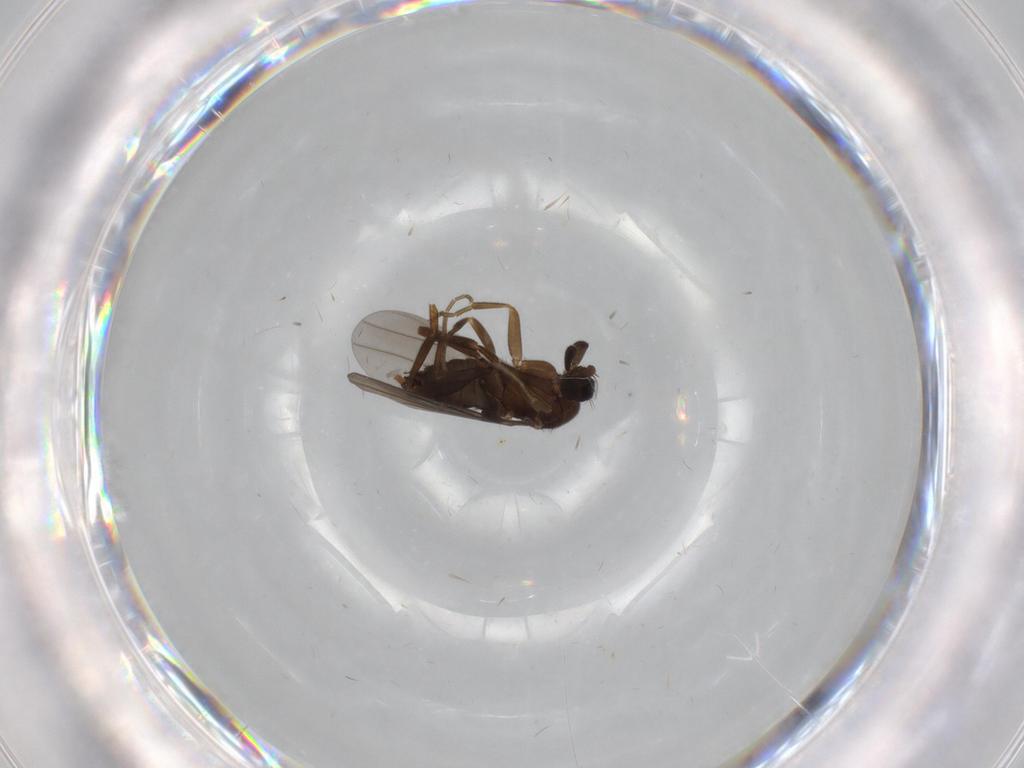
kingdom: Animalia
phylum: Arthropoda
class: Insecta
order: Diptera
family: Phoridae
